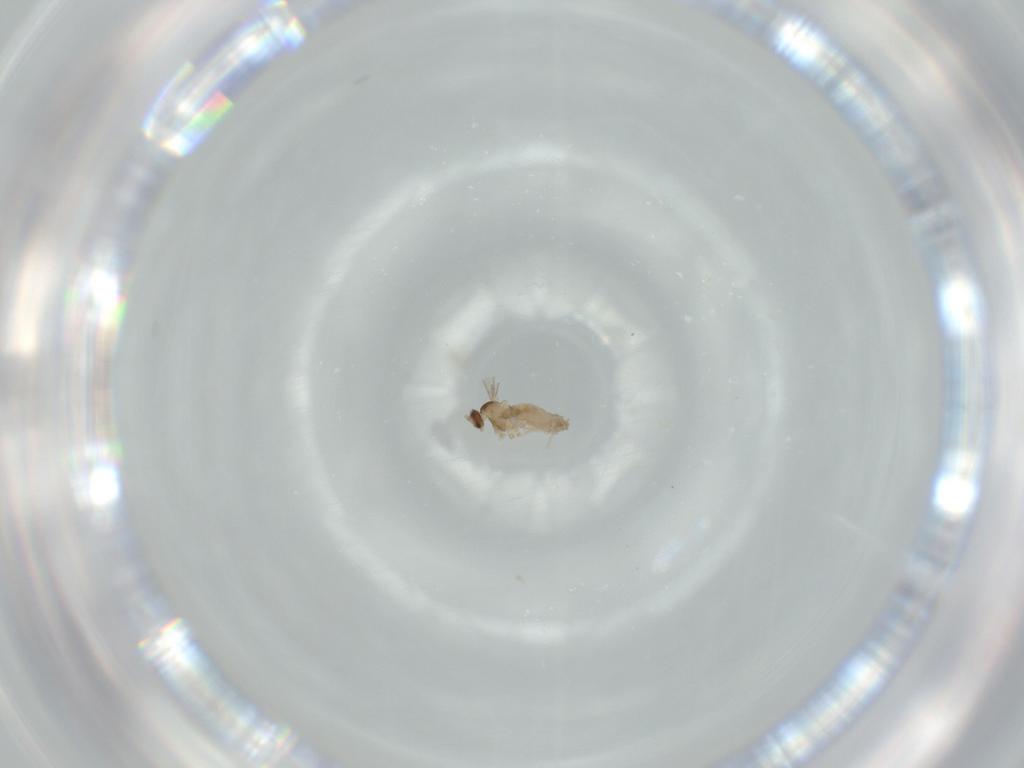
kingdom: Animalia
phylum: Arthropoda
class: Insecta
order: Diptera
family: Cecidomyiidae
